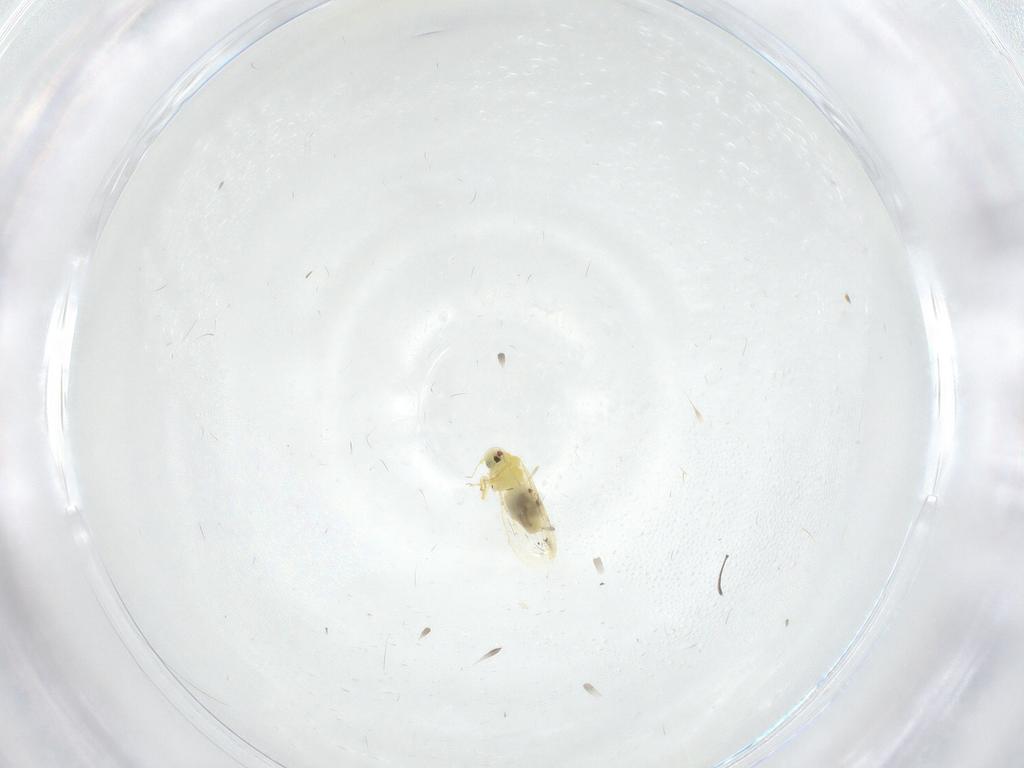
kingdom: Animalia
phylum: Arthropoda
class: Insecta
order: Hemiptera
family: Aleyrodidae
